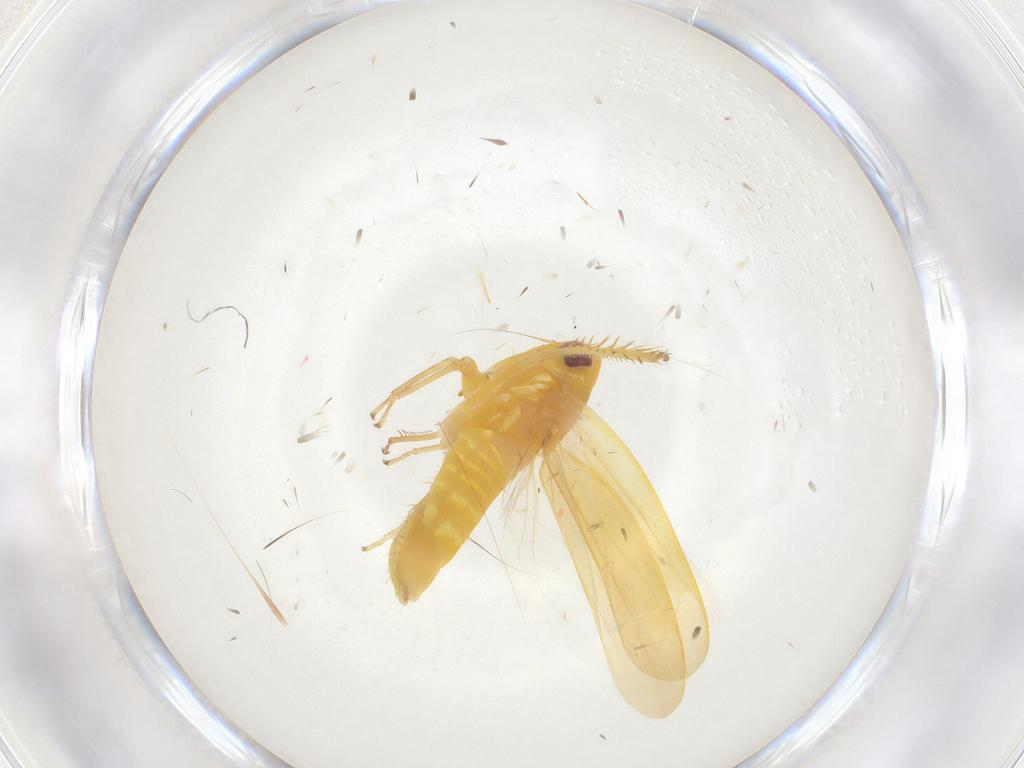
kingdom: Animalia
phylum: Arthropoda
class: Insecta
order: Hemiptera
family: Cicadellidae
